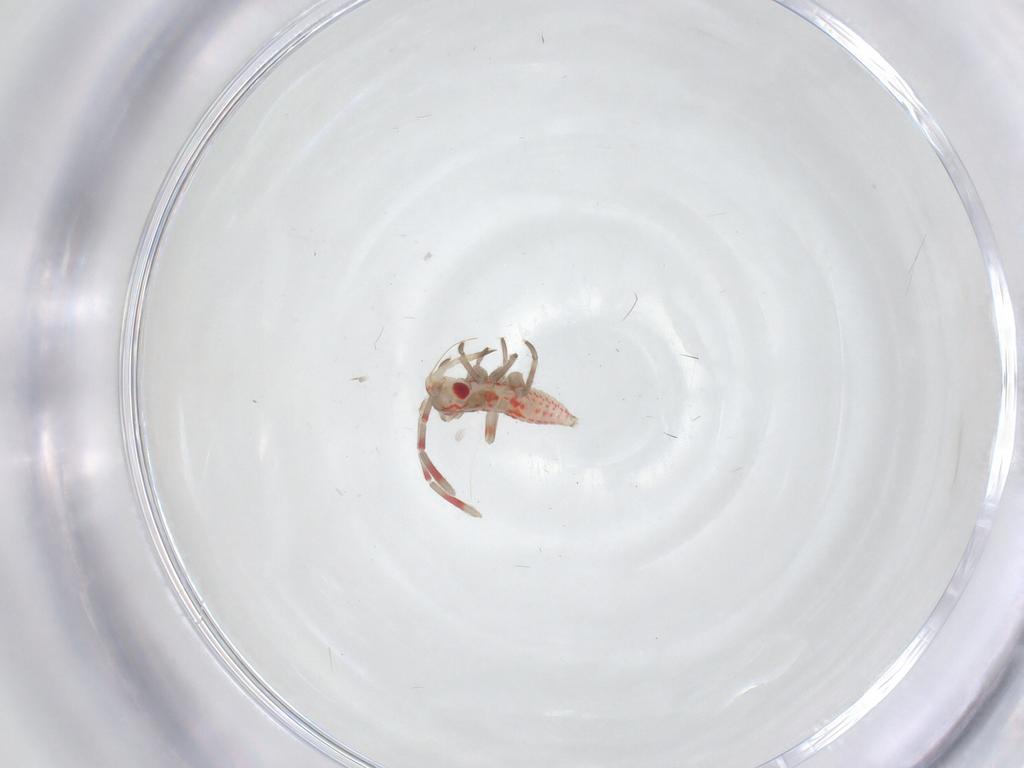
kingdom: Animalia
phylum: Arthropoda
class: Insecta
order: Hemiptera
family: Miridae
